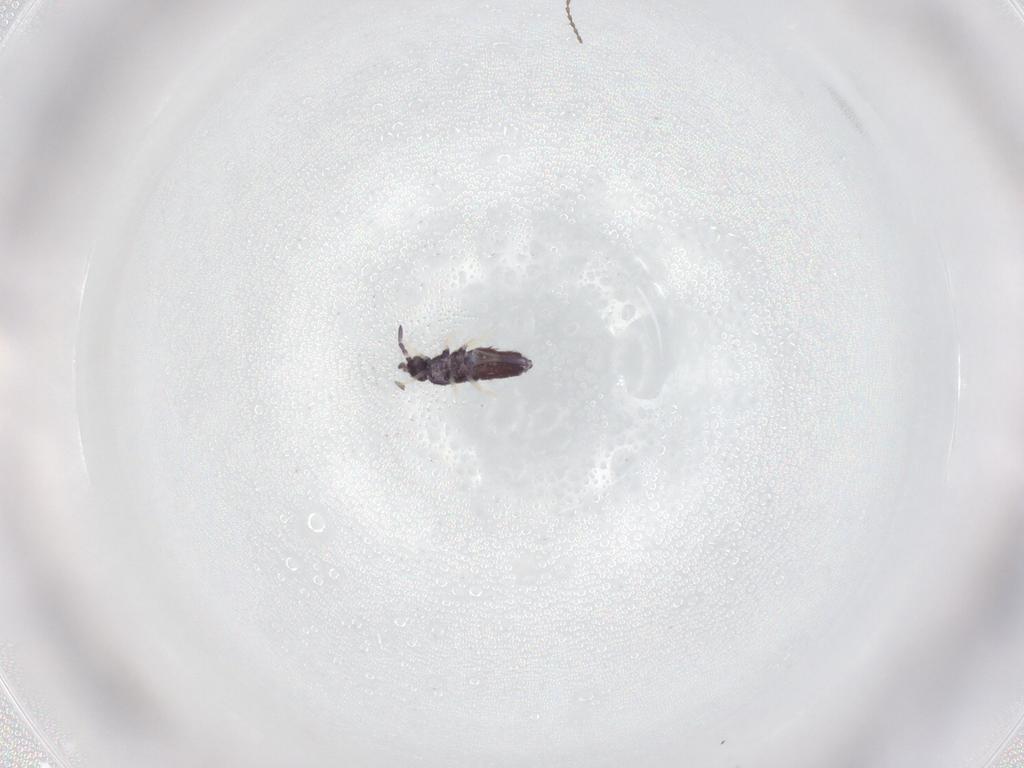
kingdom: Animalia
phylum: Arthropoda
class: Collembola
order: Entomobryomorpha
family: Entomobryidae
